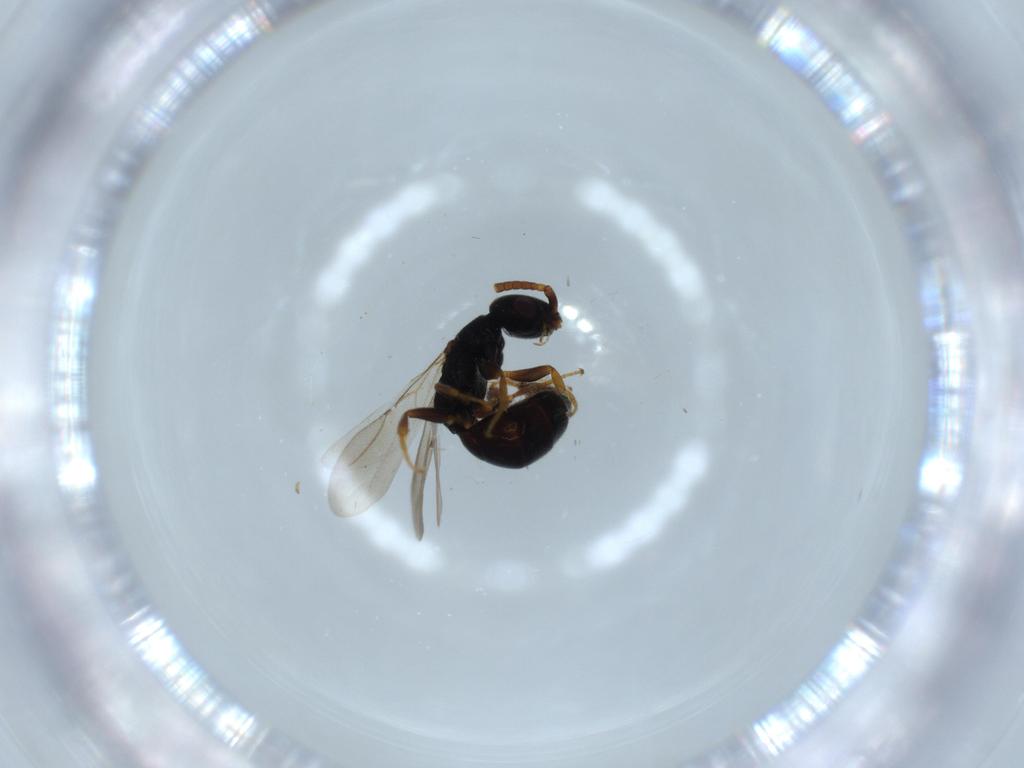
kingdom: Animalia
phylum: Arthropoda
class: Insecta
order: Hymenoptera
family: Bethylidae
